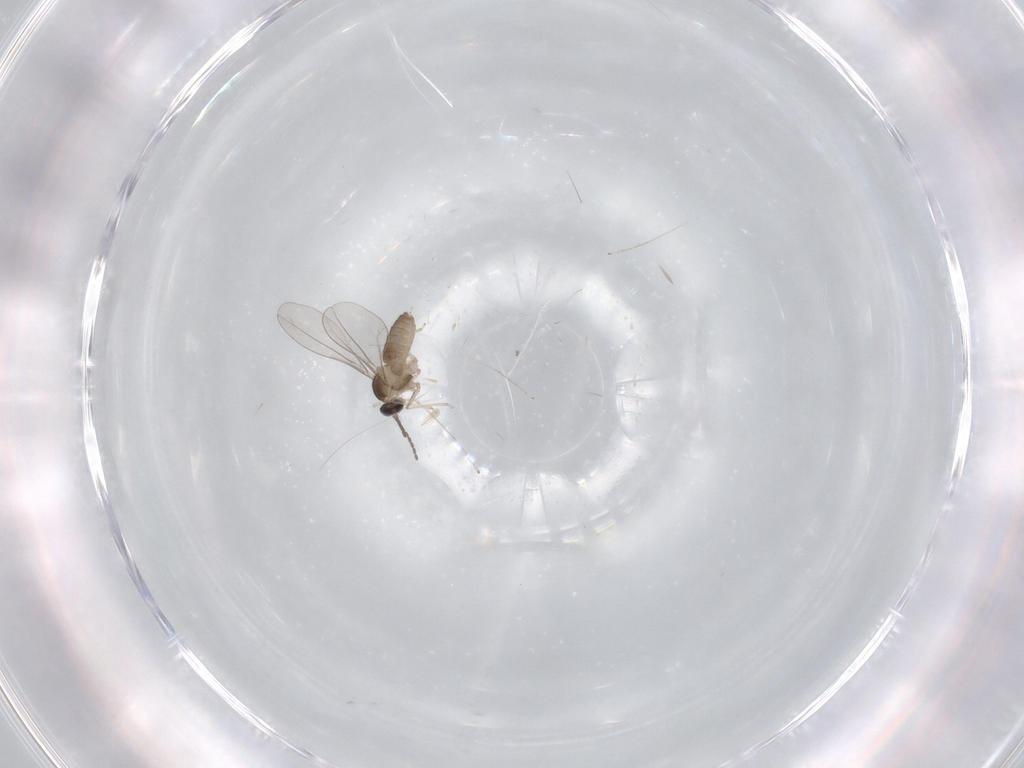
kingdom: Animalia
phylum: Arthropoda
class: Insecta
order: Diptera
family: Cecidomyiidae
